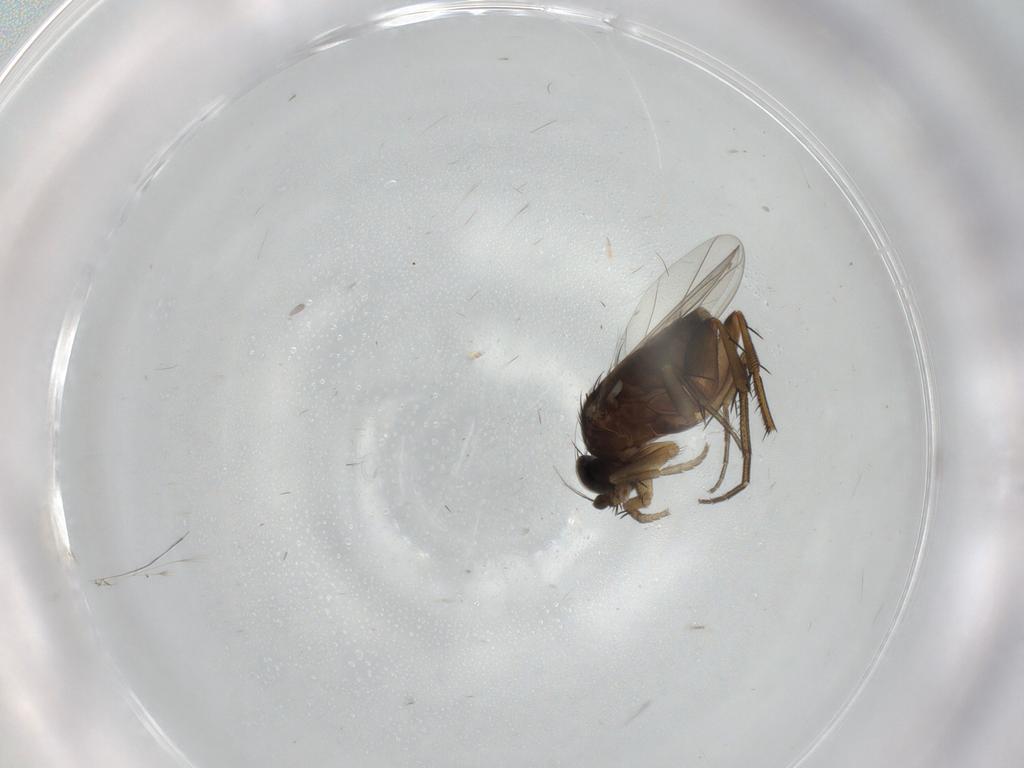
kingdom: Animalia
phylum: Arthropoda
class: Insecta
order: Diptera
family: Phoridae
